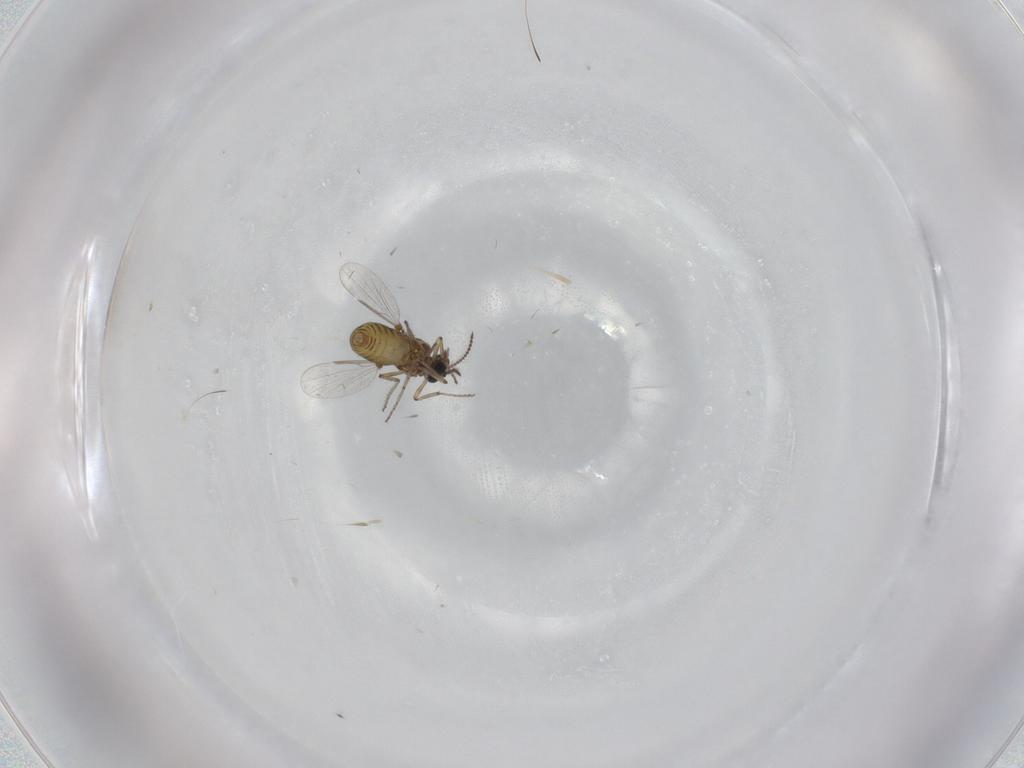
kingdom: Animalia
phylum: Arthropoda
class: Insecta
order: Diptera
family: Ceratopogonidae
